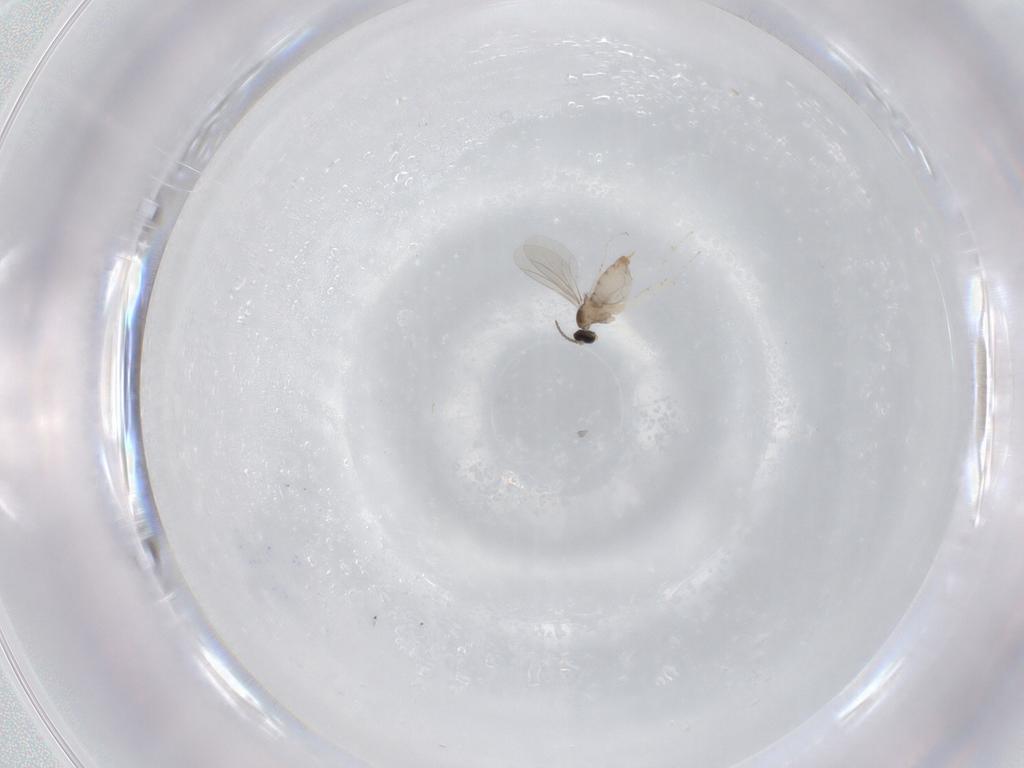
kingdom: Animalia
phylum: Arthropoda
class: Insecta
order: Diptera
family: Cecidomyiidae
